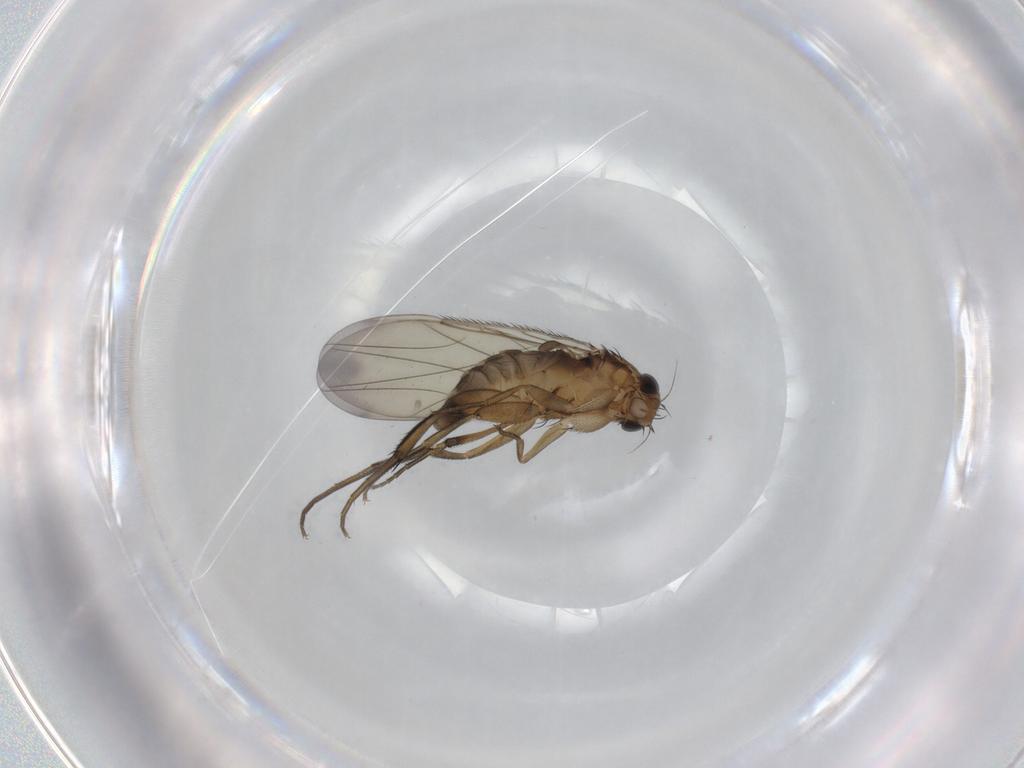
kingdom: Animalia
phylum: Arthropoda
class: Insecta
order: Diptera
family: Phoridae
